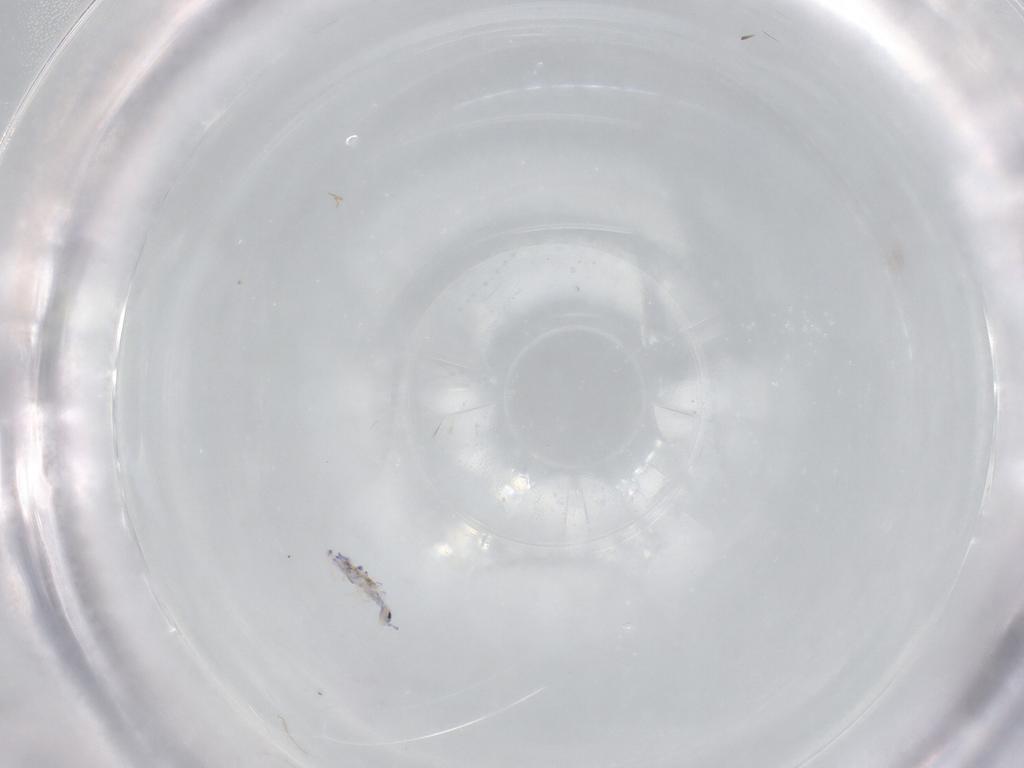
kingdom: Animalia
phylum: Arthropoda
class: Collembola
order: Entomobryomorpha
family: Entomobryidae
